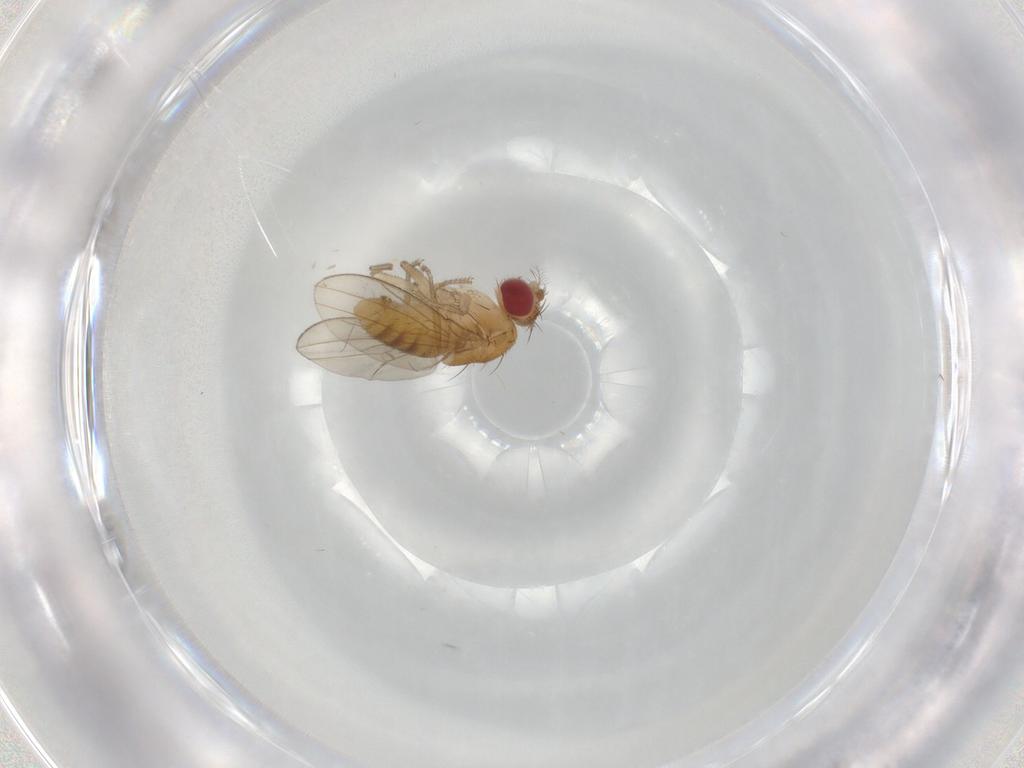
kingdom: Animalia
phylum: Arthropoda
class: Insecta
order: Diptera
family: Drosophilidae
